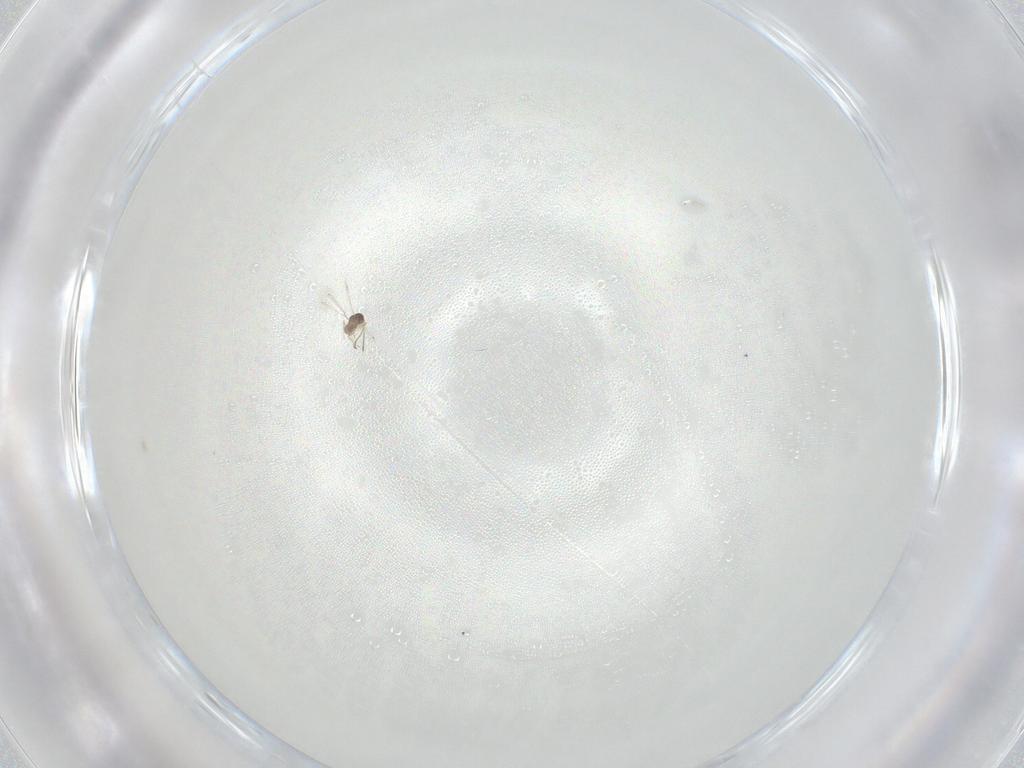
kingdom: Animalia
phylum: Arthropoda
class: Insecta
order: Hymenoptera
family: Ichneumonidae
